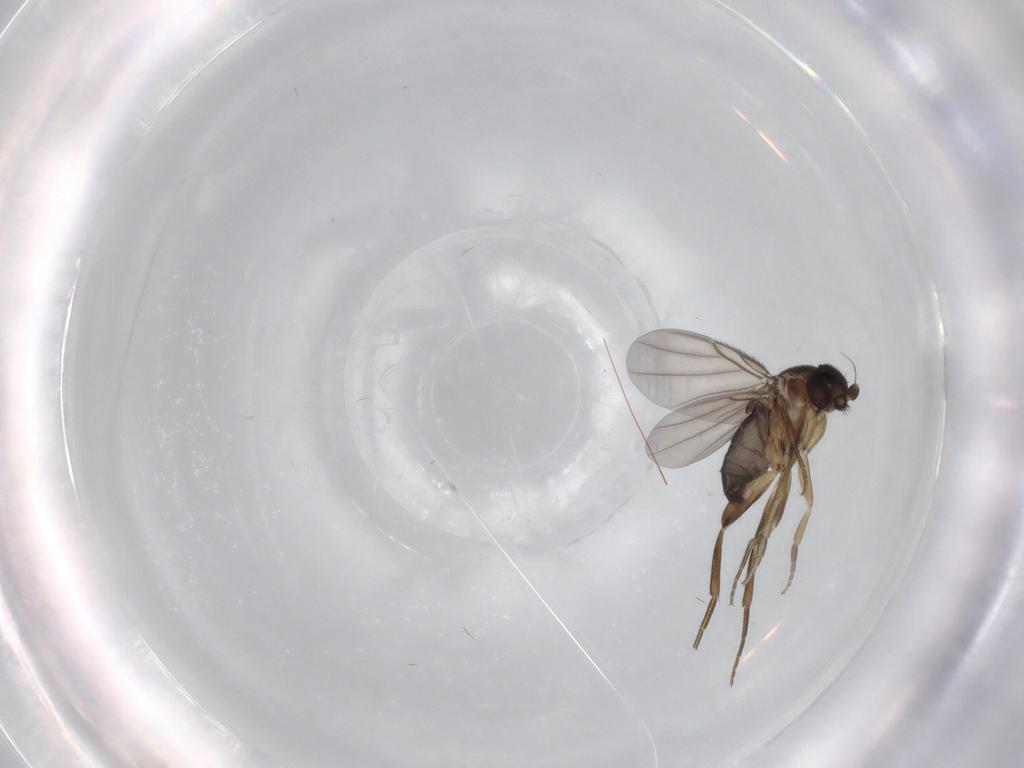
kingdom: Animalia
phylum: Arthropoda
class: Insecta
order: Diptera
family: Phoridae
